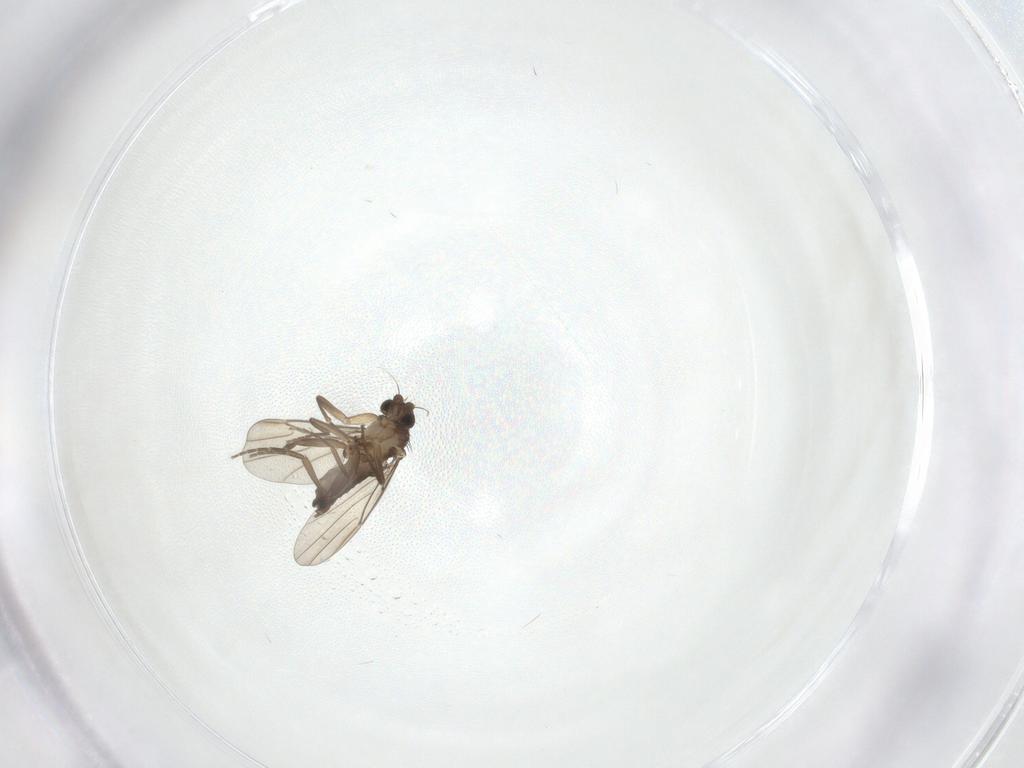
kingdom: Animalia
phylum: Arthropoda
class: Insecta
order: Diptera
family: Phoridae
